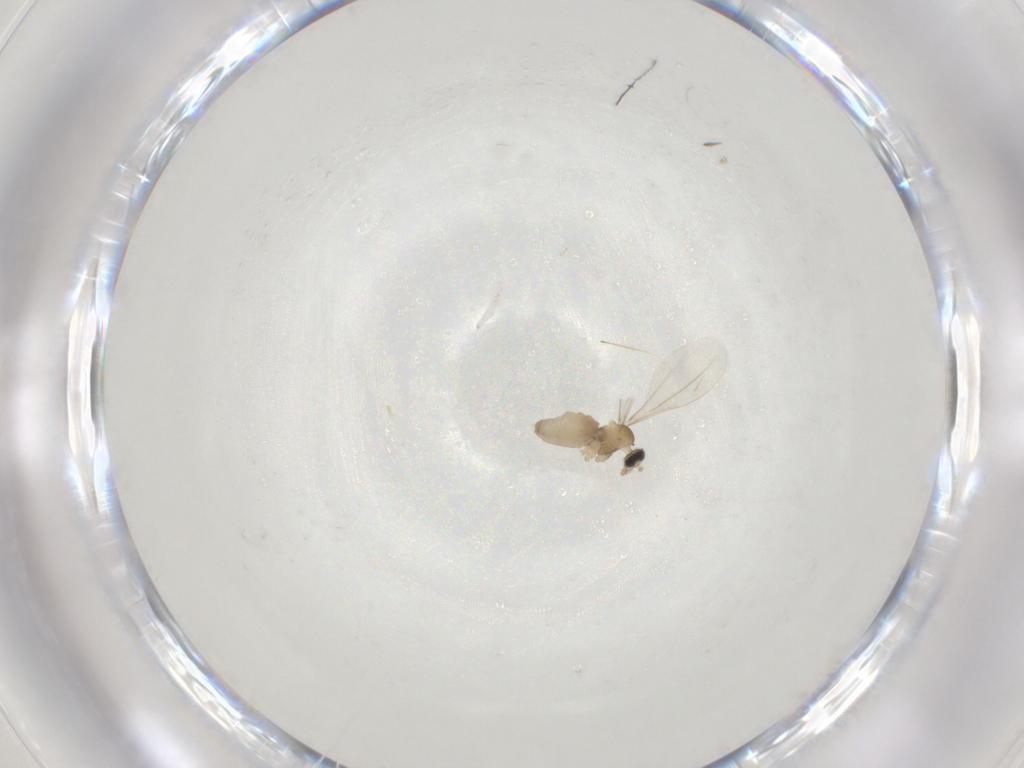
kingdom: Animalia
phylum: Arthropoda
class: Insecta
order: Diptera
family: Cecidomyiidae
